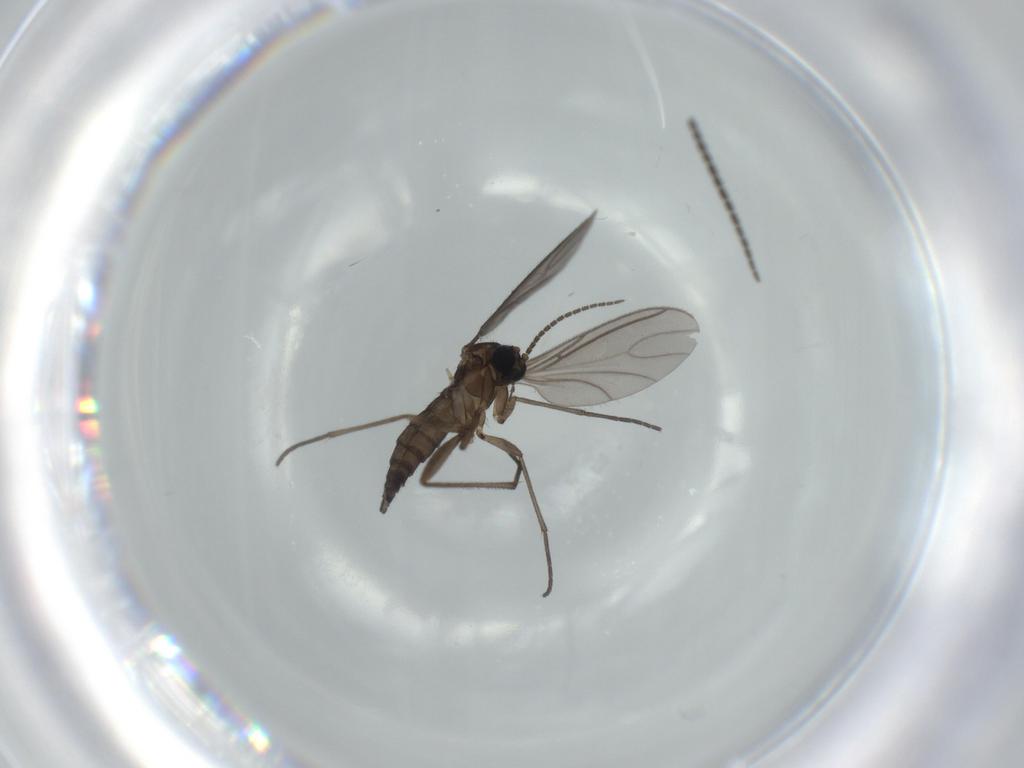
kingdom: Animalia
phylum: Arthropoda
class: Insecta
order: Diptera
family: Sciaridae
